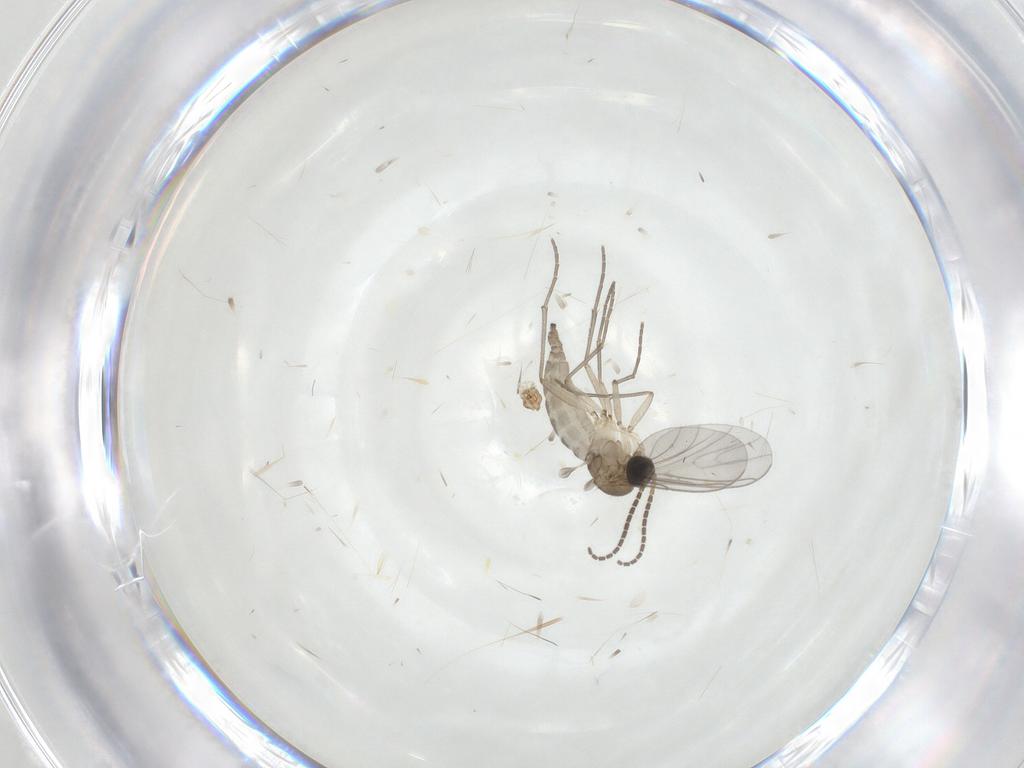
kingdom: Animalia
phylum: Arthropoda
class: Insecta
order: Diptera
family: Sciaridae
